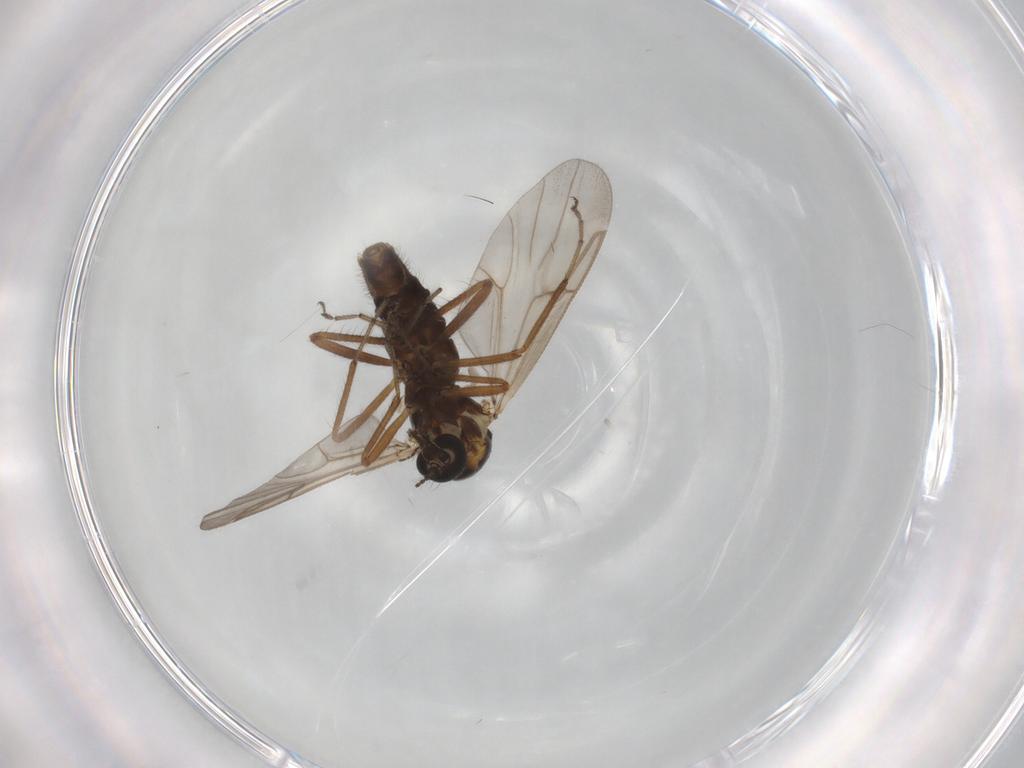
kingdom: Animalia
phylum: Arthropoda
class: Insecta
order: Diptera
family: Ceratopogonidae
